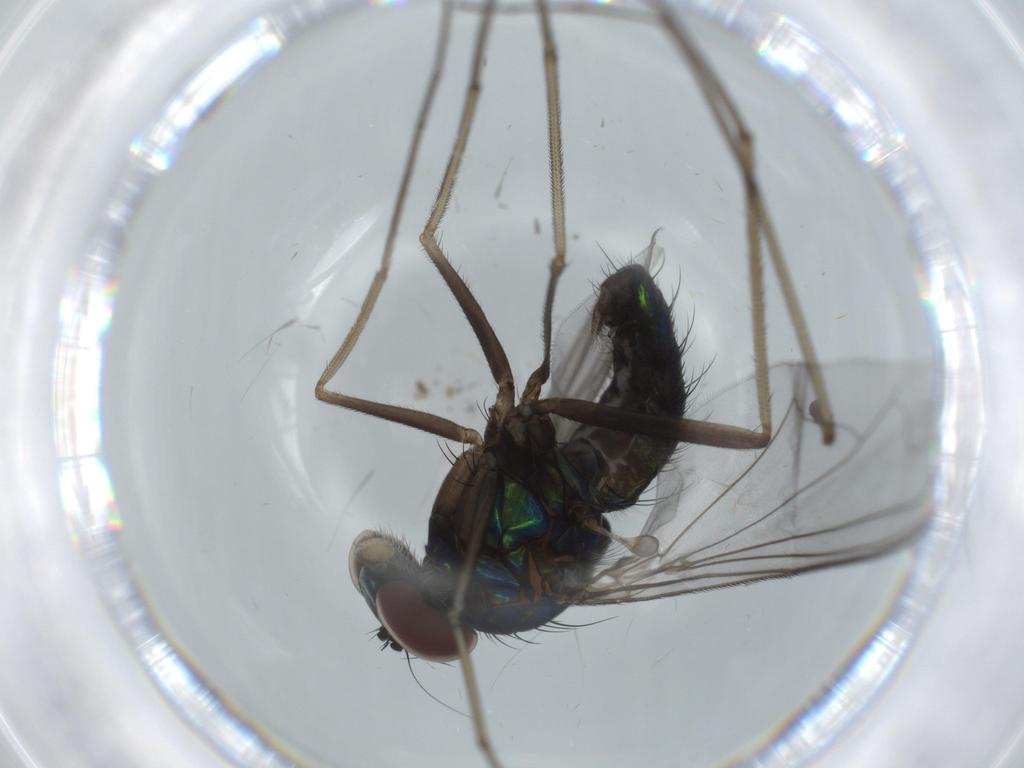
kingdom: Animalia
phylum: Arthropoda
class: Insecta
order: Diptera
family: Dolichopodidae
